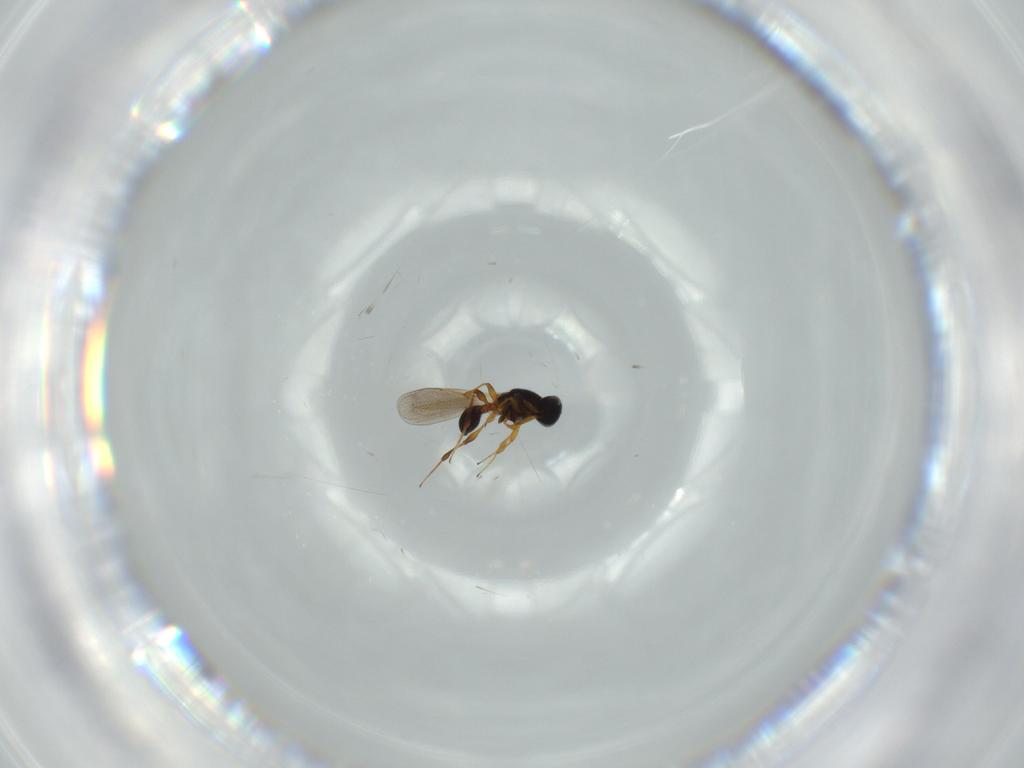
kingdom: Animalia
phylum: Arthropoda
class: Insecta
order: Hymenoptera
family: Platygastridae
